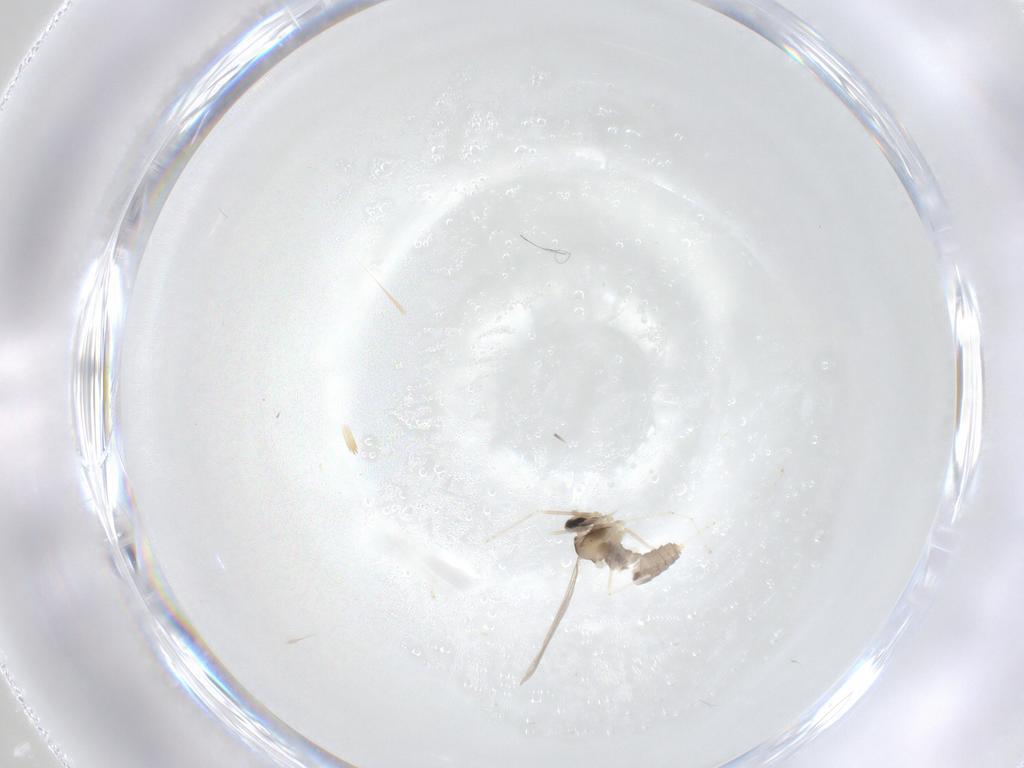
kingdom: Animalia
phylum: Arthropoda
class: Insecta
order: Diptera
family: Cecidomyiidae
